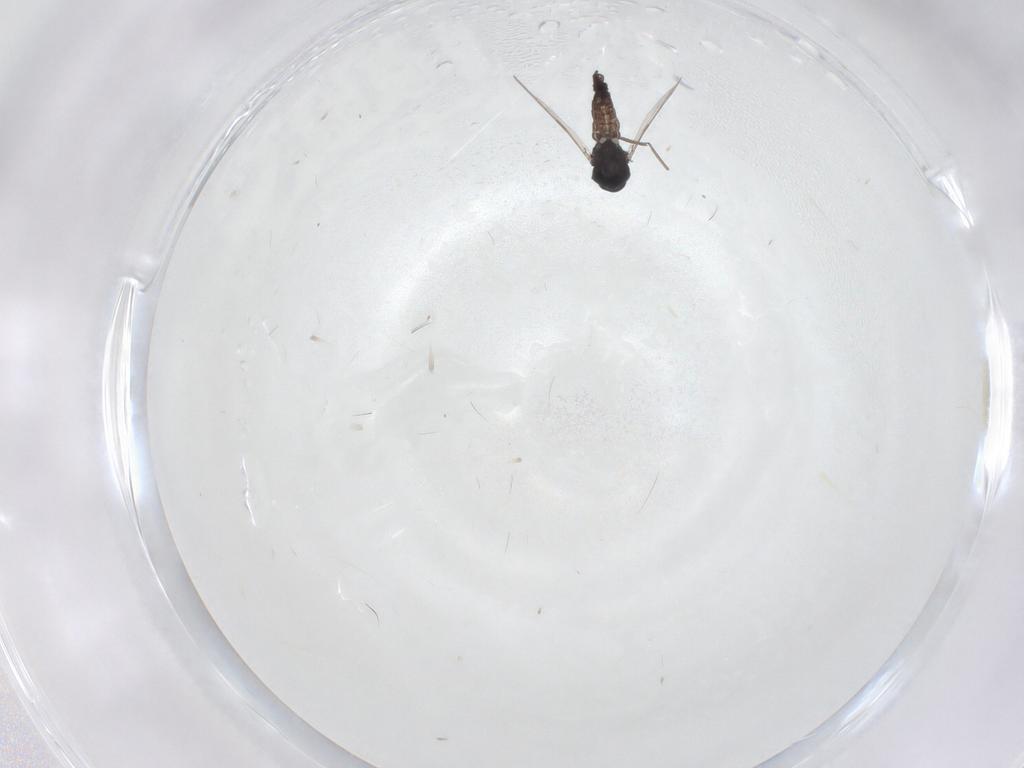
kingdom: Animalia
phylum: Arthropoda
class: Insecta
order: Diptera
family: Ceratopogonidae
